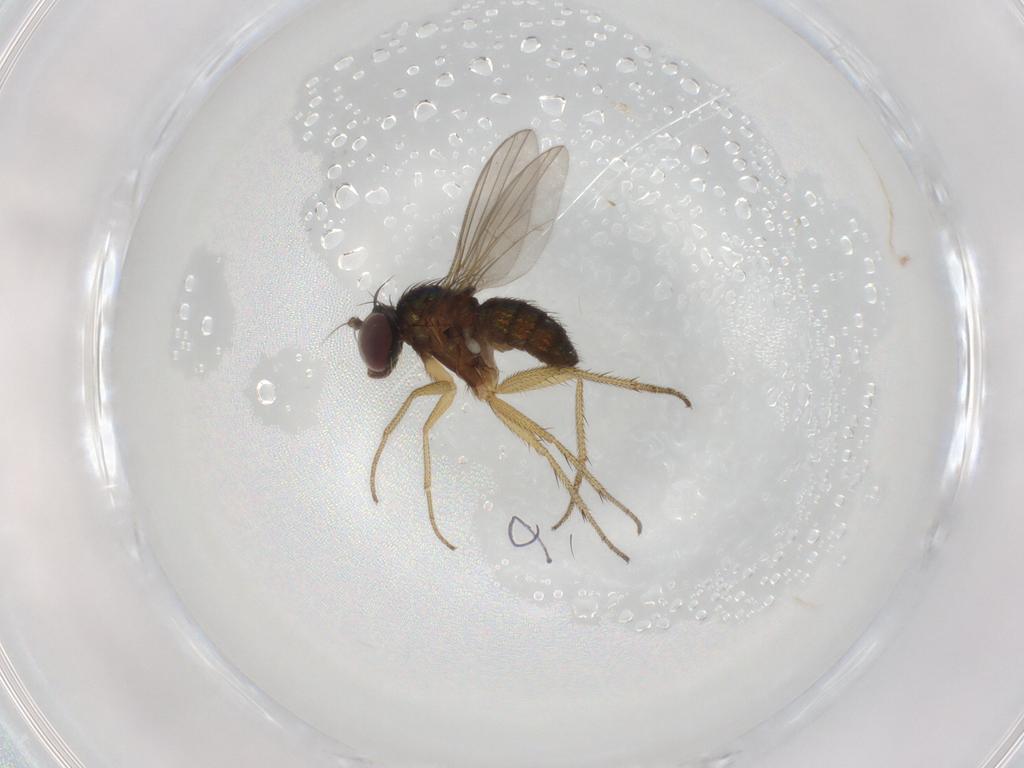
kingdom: Animalia
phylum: Arthropoda
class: Insecta
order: Diptera
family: Dolichopodidae
